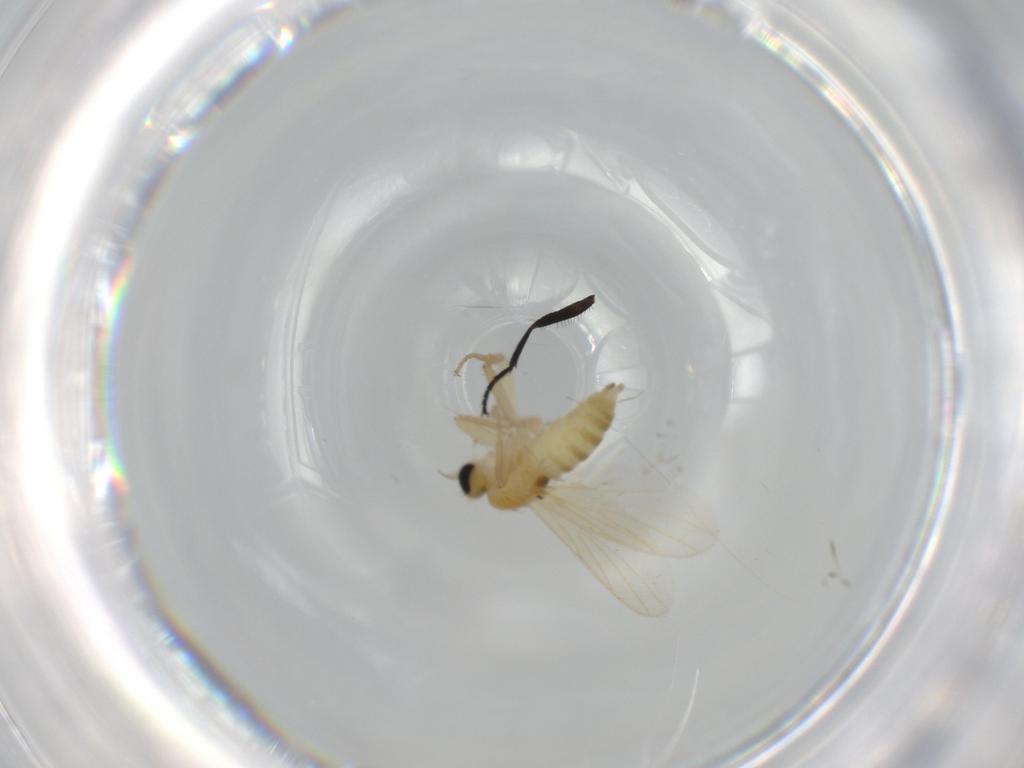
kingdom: Animalia
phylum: Arthropoda
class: Insecta
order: Diptera
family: Hybotidae
